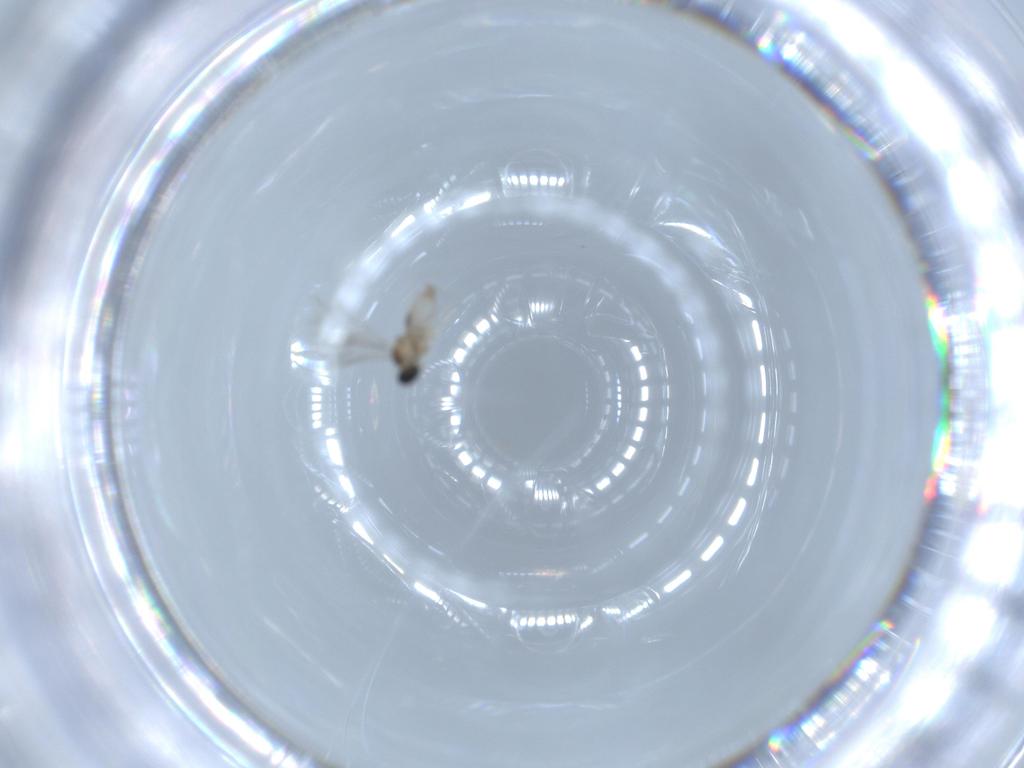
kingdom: Animalia
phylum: Arthropoda
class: Insecta
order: Diptera
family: Cecidomyiidae
